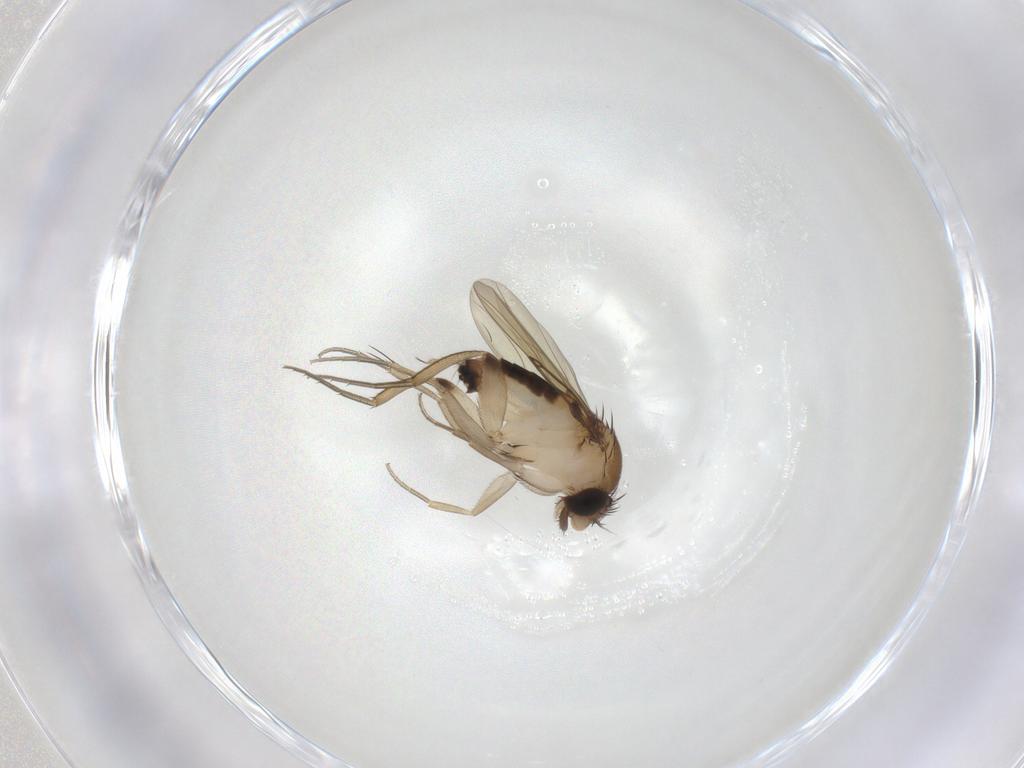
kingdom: Animalia
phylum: Arthropoda
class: Insecta
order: Diptera
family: Phoridae
